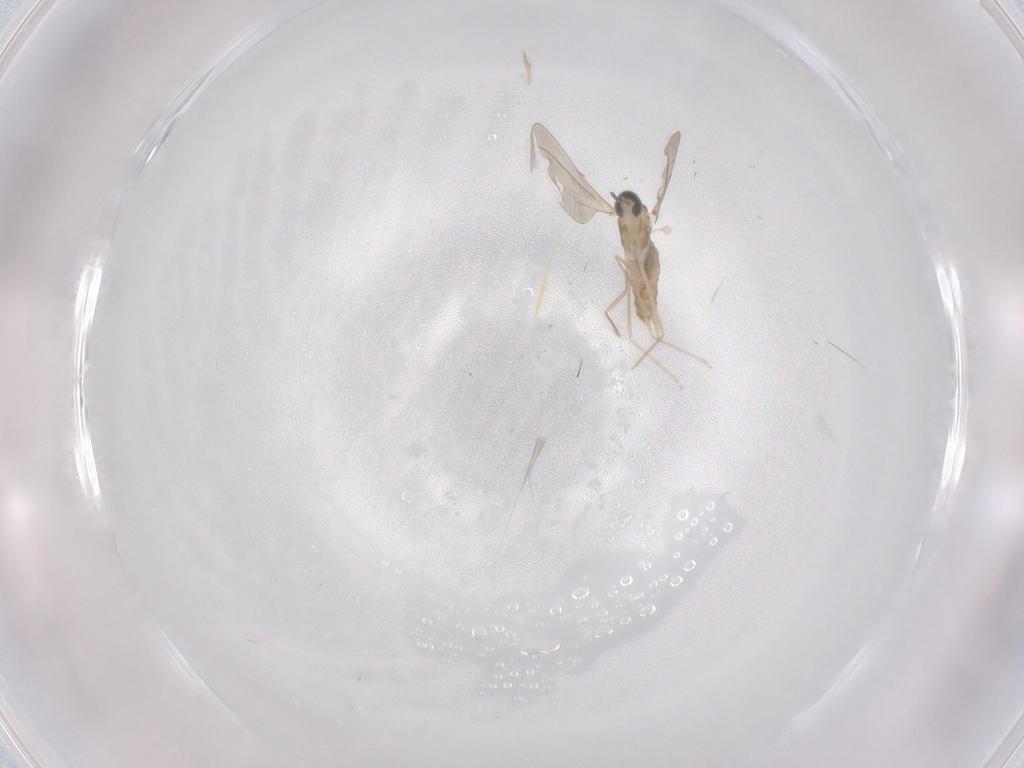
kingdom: Animalia
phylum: Arthropoda
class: Insecta
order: Diptera
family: Cecidomyiidae
